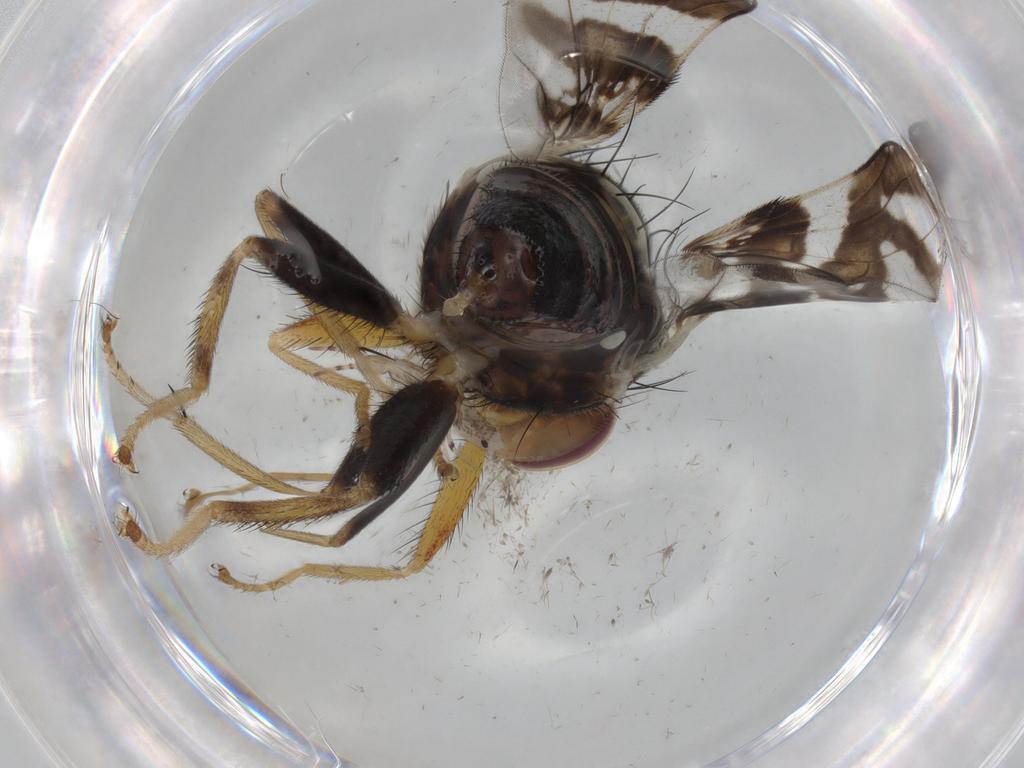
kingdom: Animalia
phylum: Arthropoda
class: Insecta
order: Diptera
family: Tephritidae
